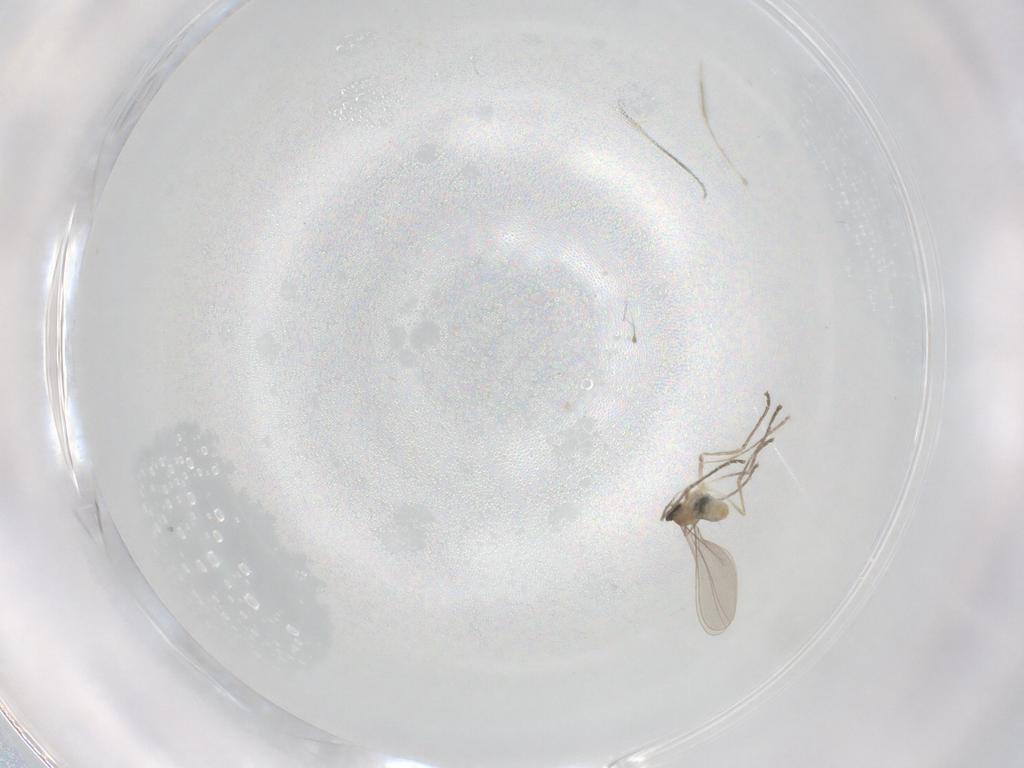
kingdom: Animalia
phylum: Arthropoda
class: Insecta
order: Diptera
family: Cecidomyiidae
